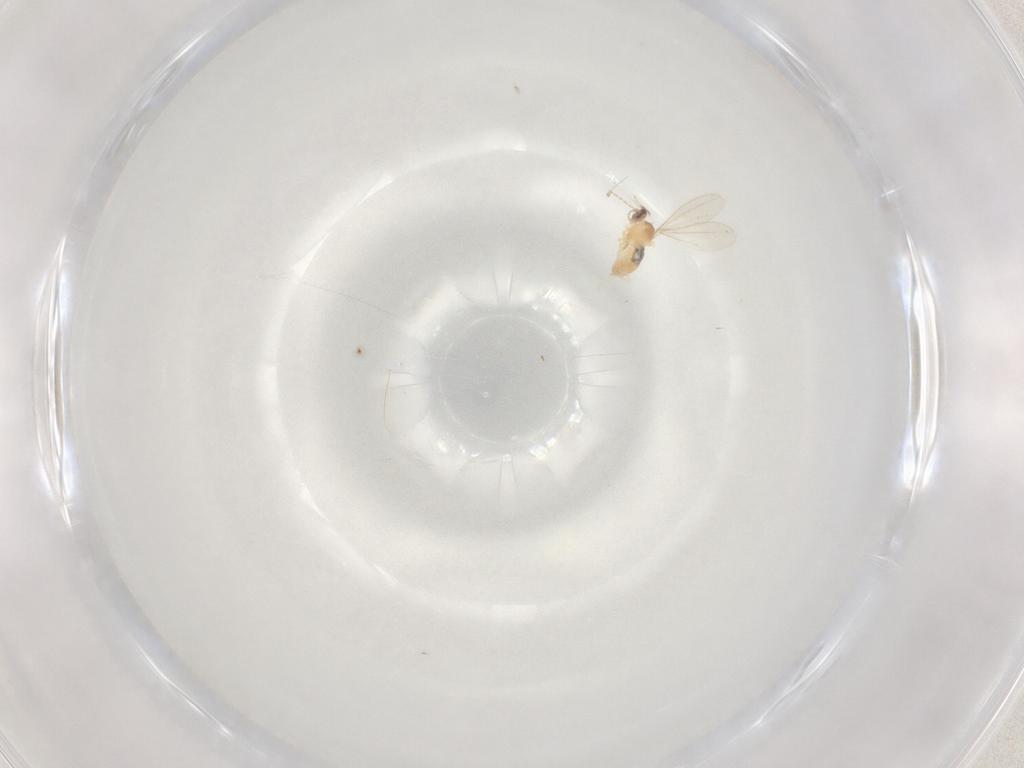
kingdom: Animalia
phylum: Arthropoda
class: Insecta
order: Diptera
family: Cecidomyiidae
